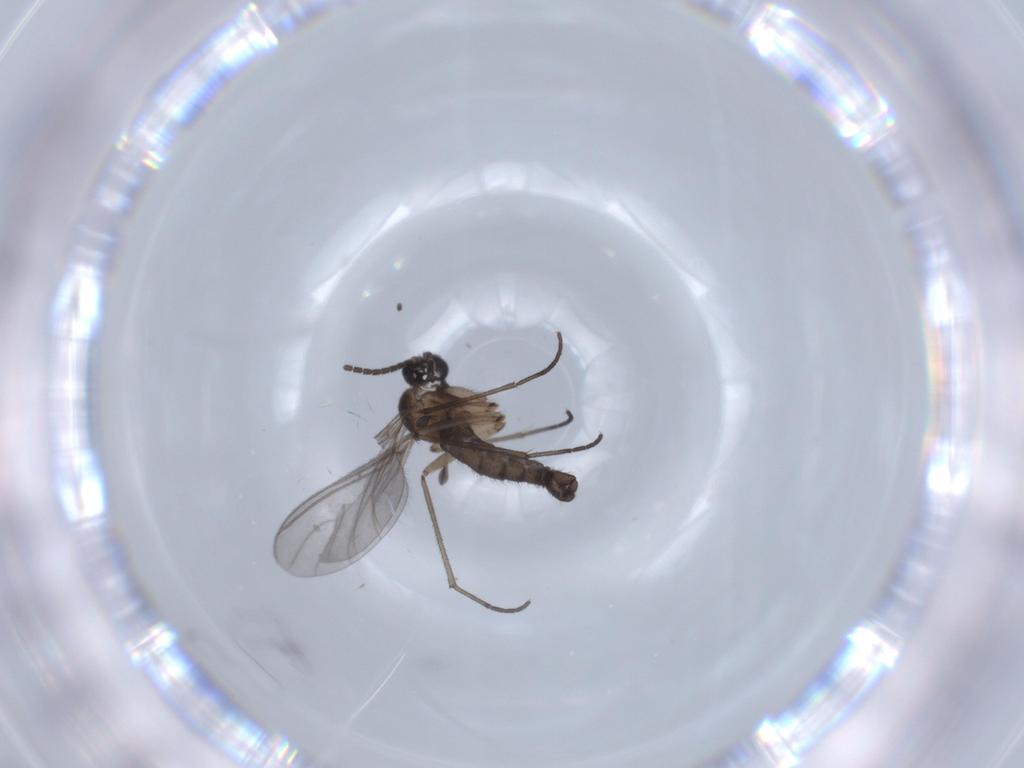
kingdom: Animalia
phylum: Arthropoda
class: Insecta
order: Diptera
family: Sciaridae
